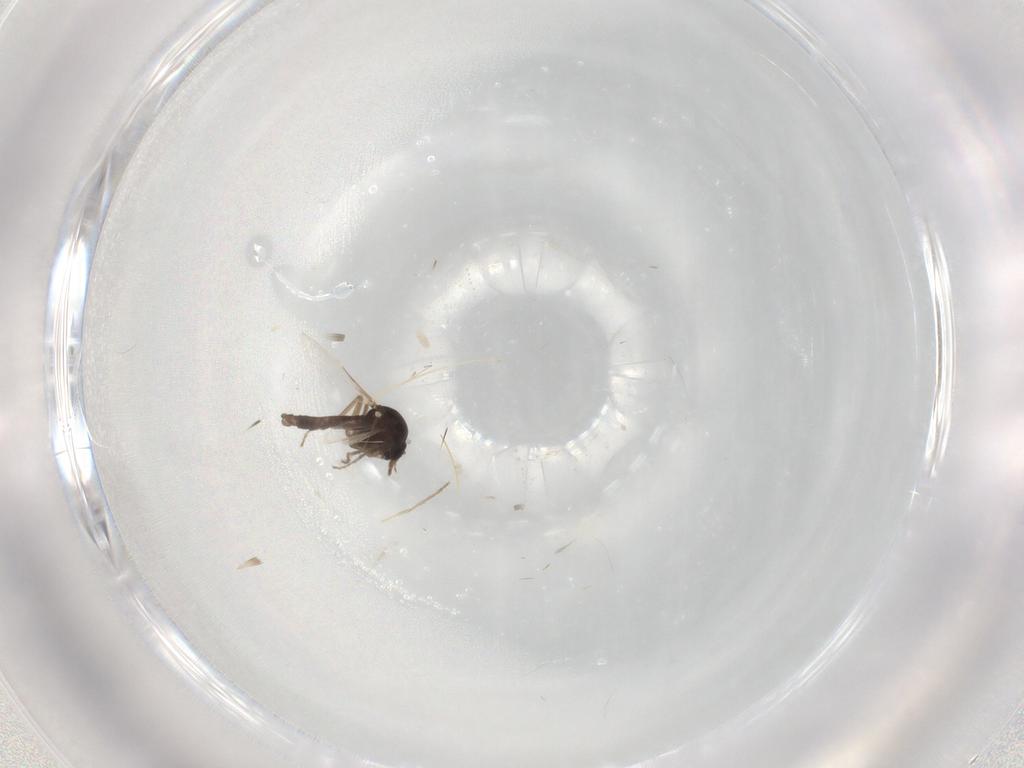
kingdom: Animalia
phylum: Arthropoda
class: Insecta
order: Diptera
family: Ceratopogonidae
